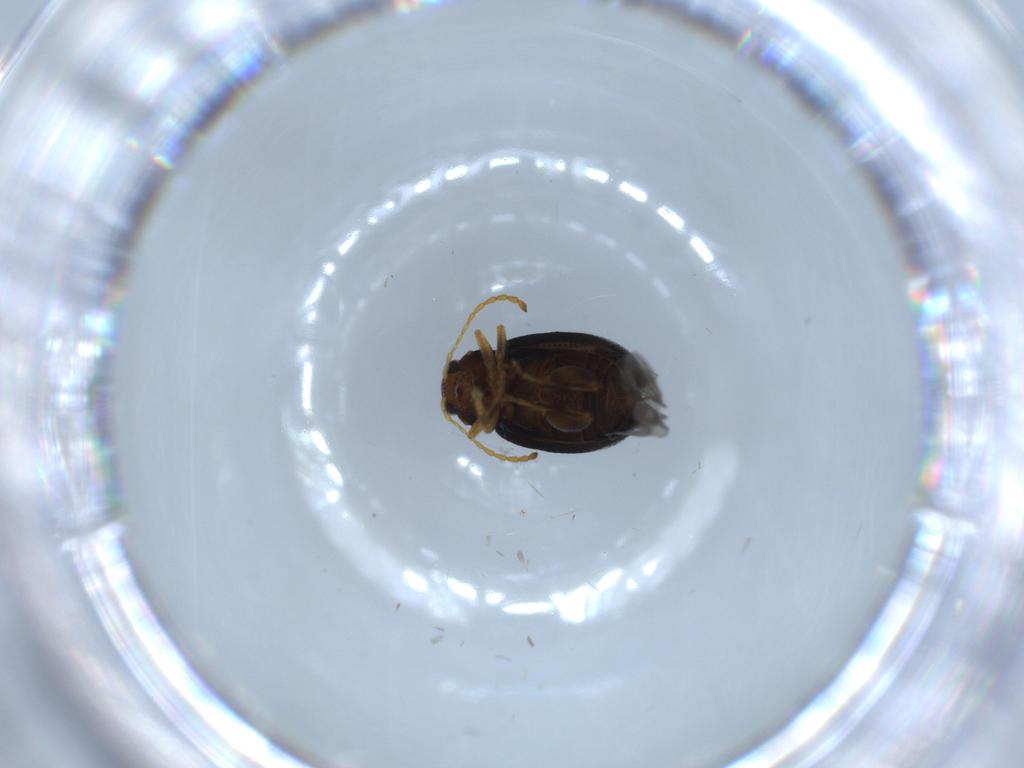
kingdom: Animalia
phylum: Arthropoda
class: Insecta
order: Coleoptera
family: Chrysomelidae
